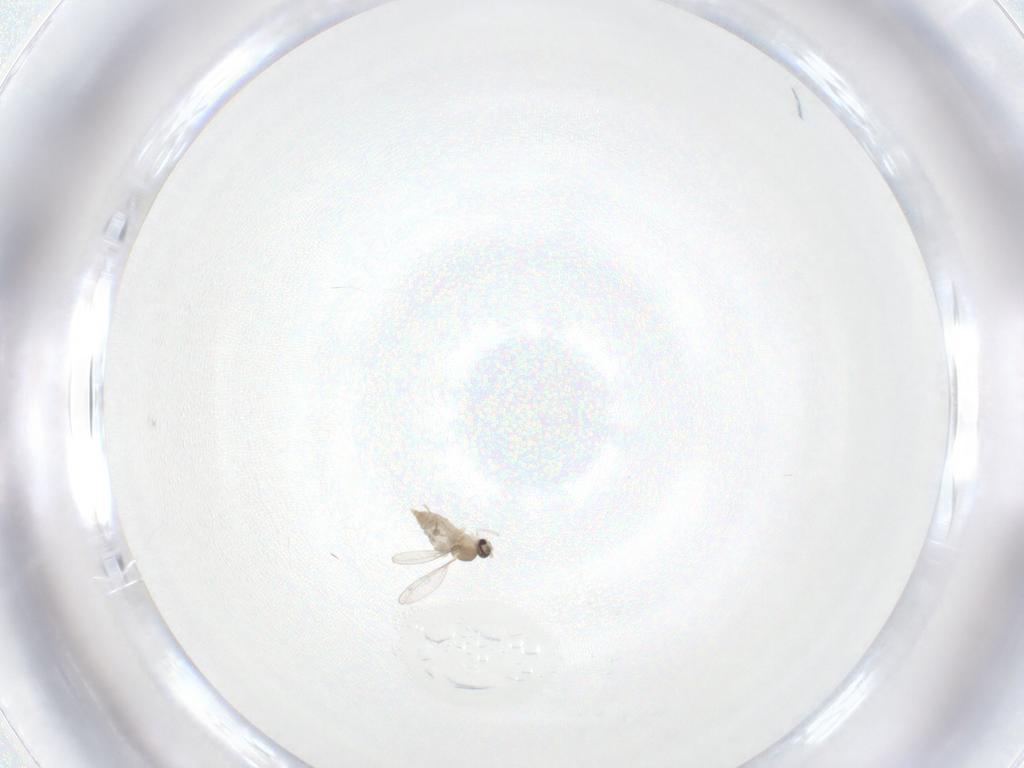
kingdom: Animalia
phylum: Arthropoda
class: Insecta
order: Diptera
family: Cecidomyiidae
